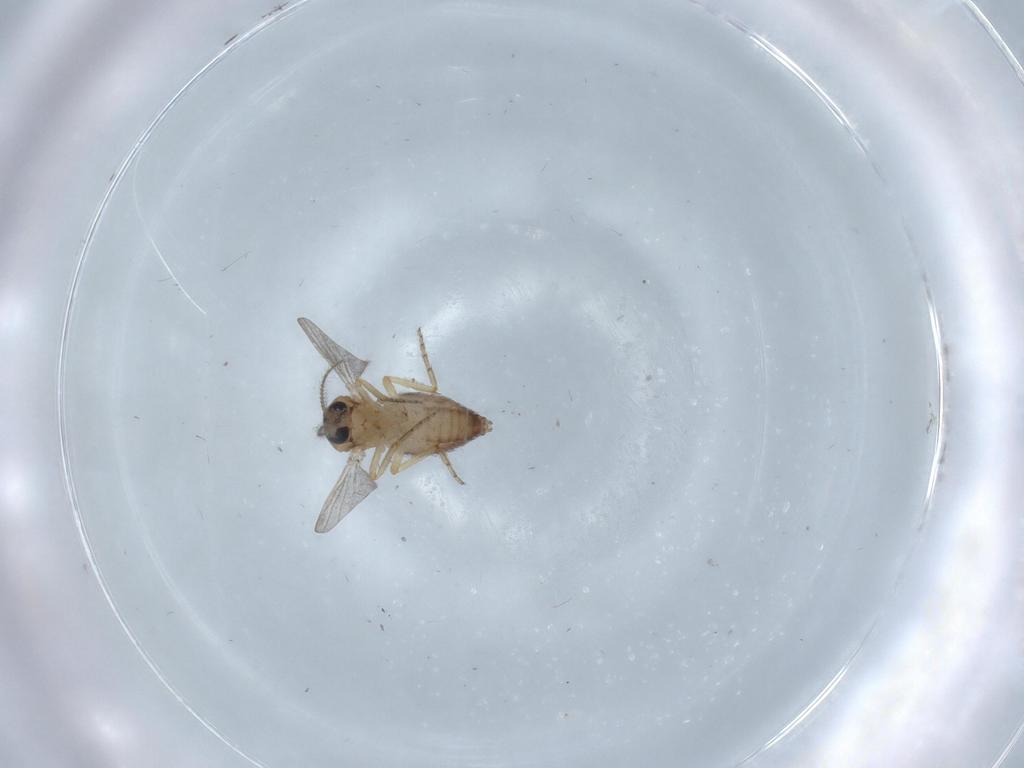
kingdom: Animalia
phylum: Arthropoda
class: Insecta
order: Diptera
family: Ceratopogonidae
